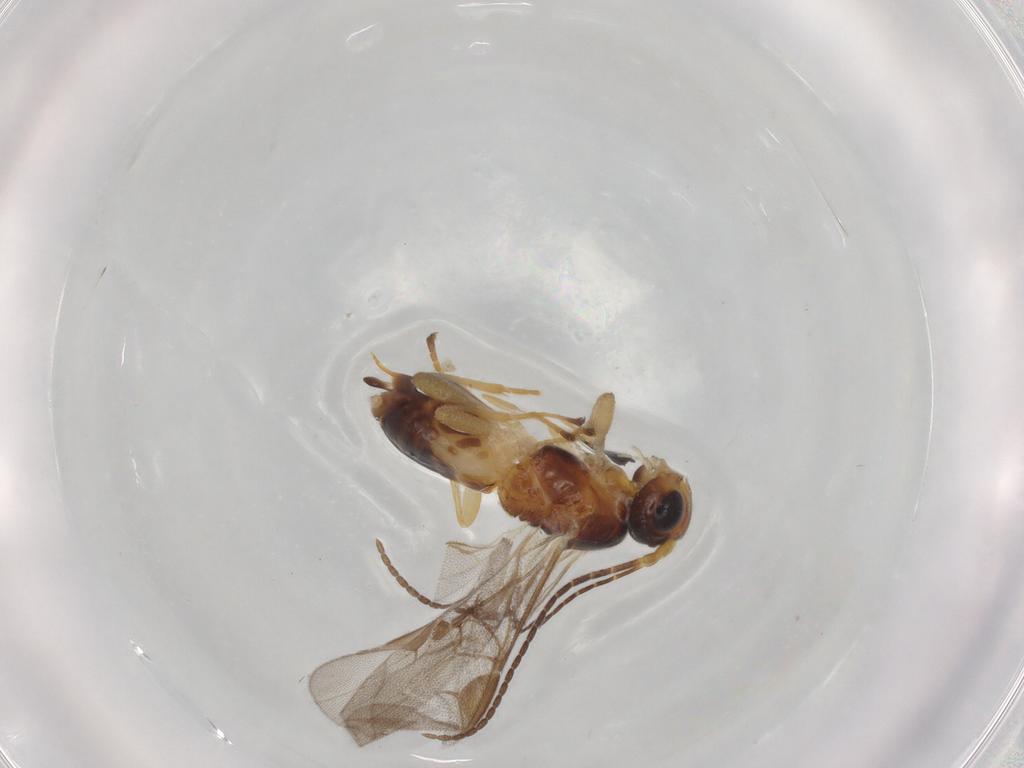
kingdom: Animalia
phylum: Arthropoda
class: Insecta
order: Hymenoptera
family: Braconidae
